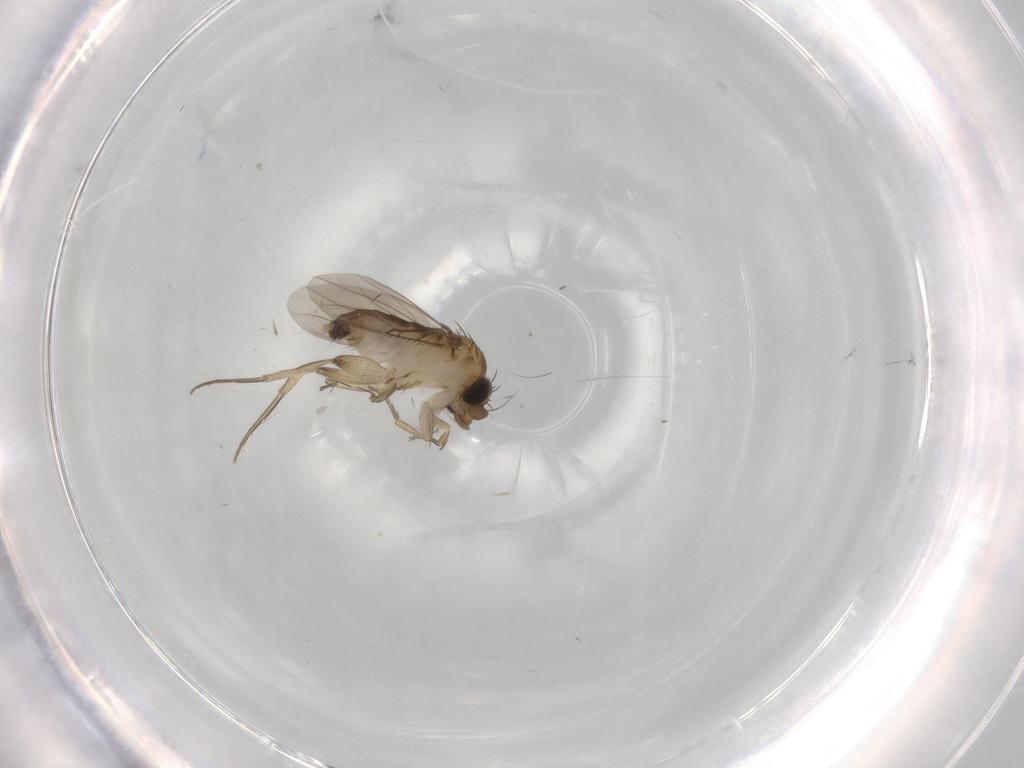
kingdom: Animalia
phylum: Arthropoda
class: Insecta
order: Diptera
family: Phoridae
